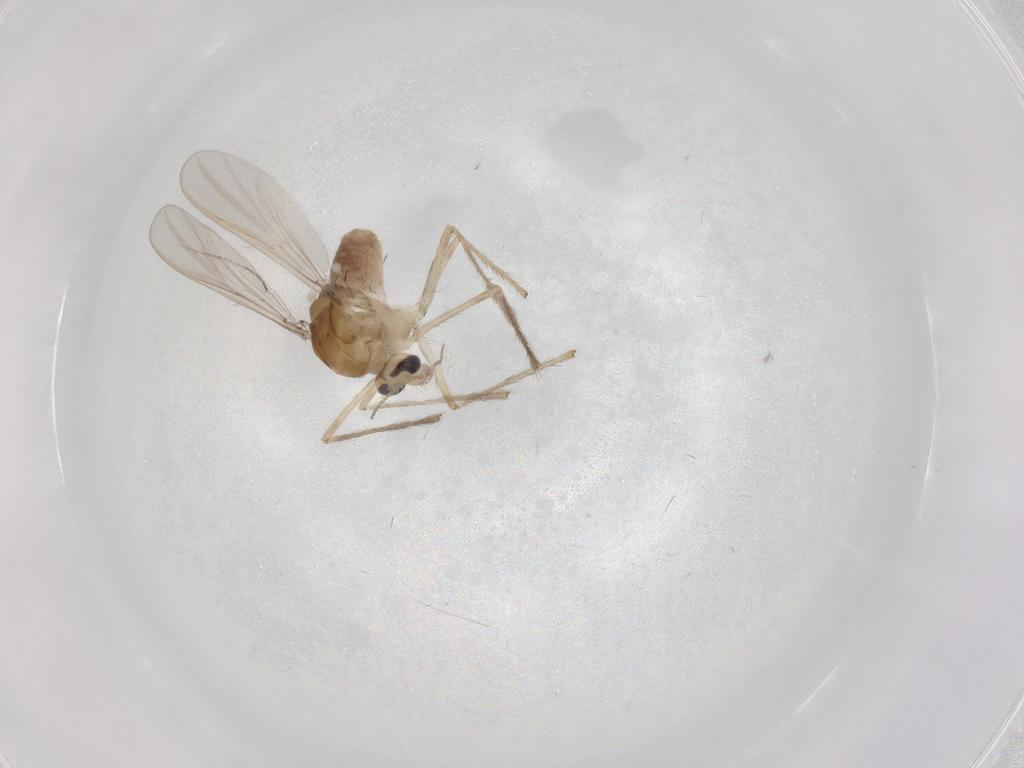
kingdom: Animalia
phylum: Arthropoda
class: Insecta
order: Diptera
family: Chironomidae
